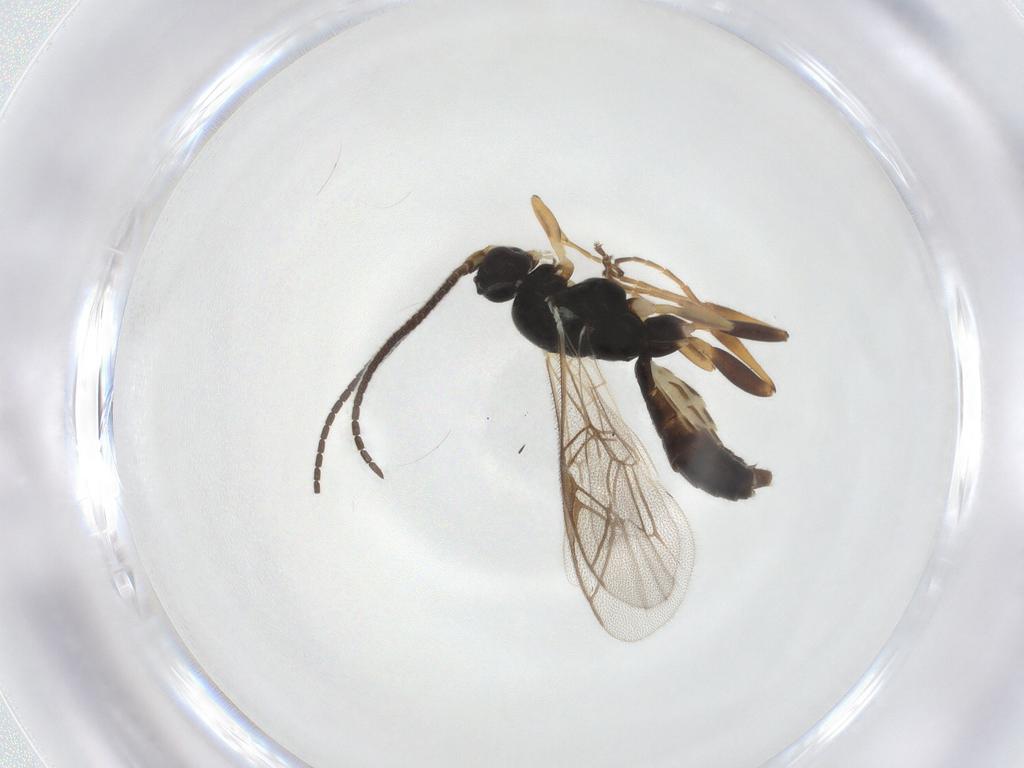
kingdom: Animalia
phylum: Arthropoda
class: Insecta
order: Hymenoptera
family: Ichneumonidae
